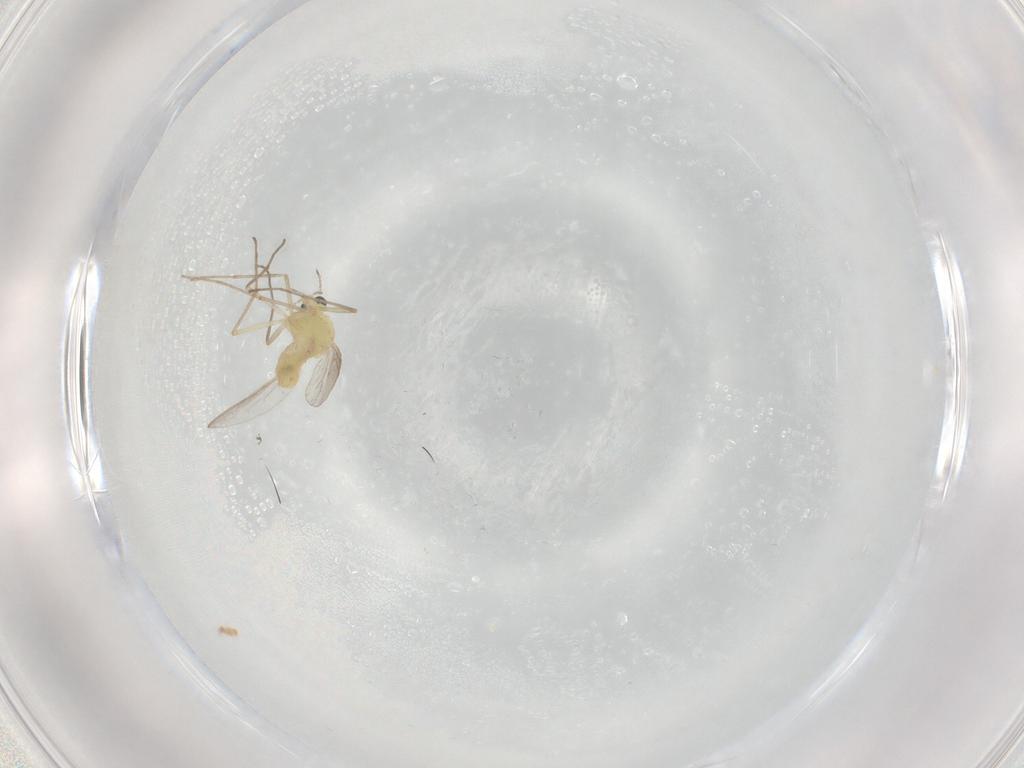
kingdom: Animalia
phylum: Arthropoda
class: Insecta
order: Diptera
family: Chironomidae
